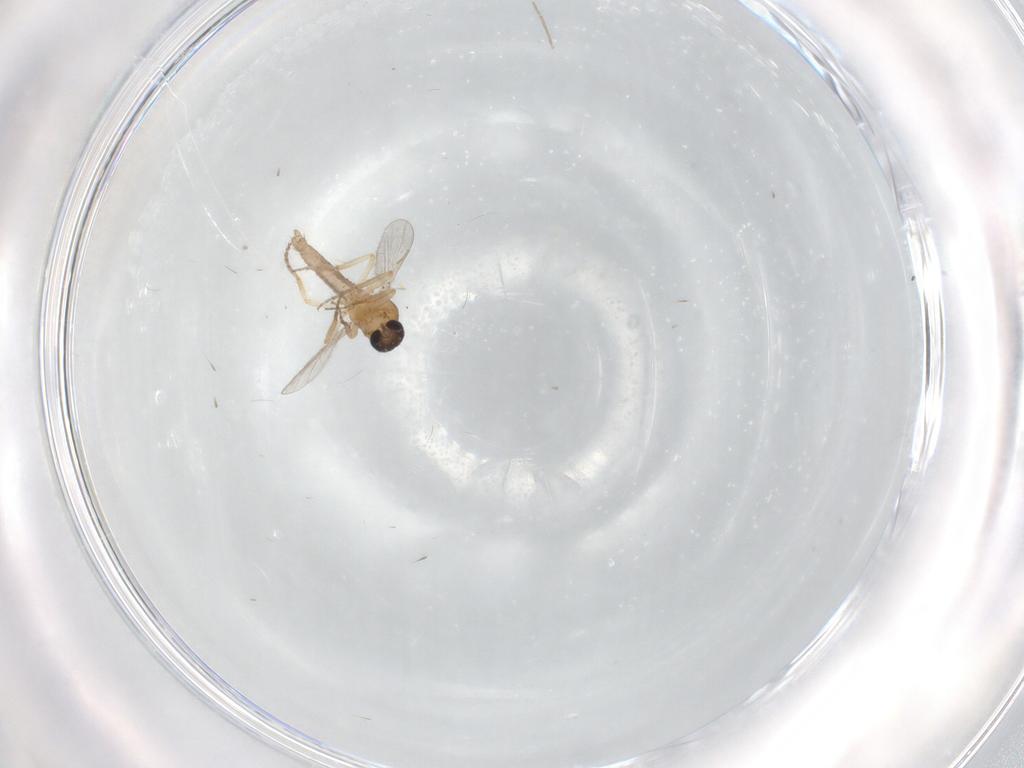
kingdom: Animalia
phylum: Arthropoda
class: Insecta
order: Diptera
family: Ceratopogonidae
